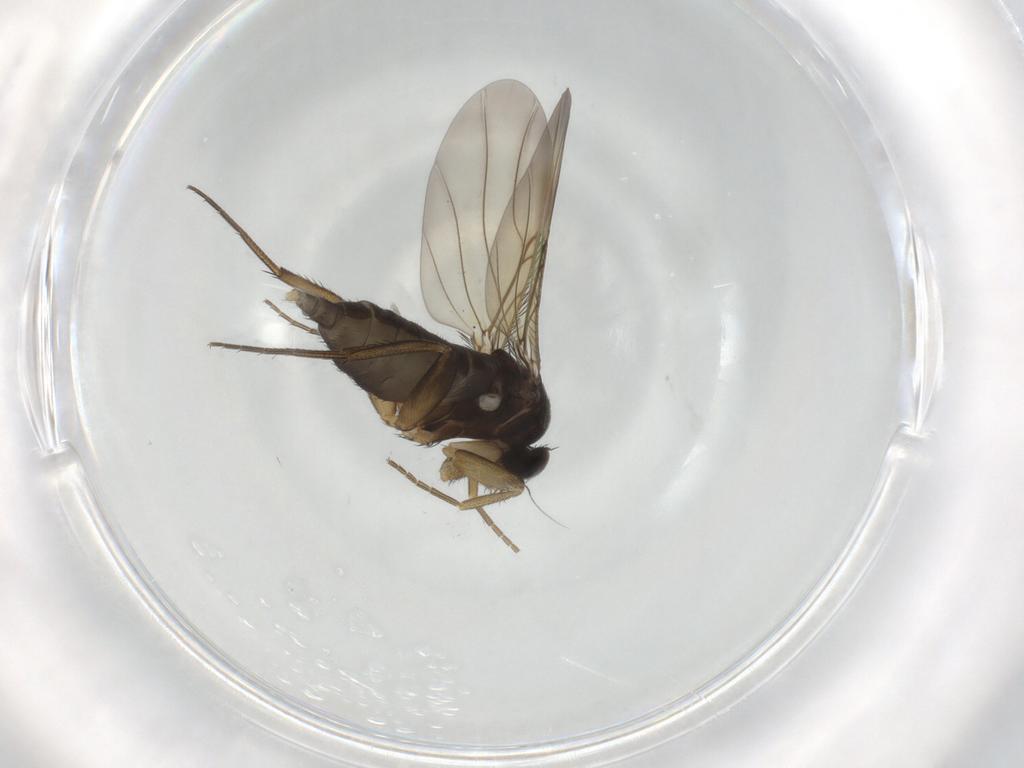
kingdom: Animalia
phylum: Arthropoda
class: Insecta
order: Diptera
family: Phoridae
